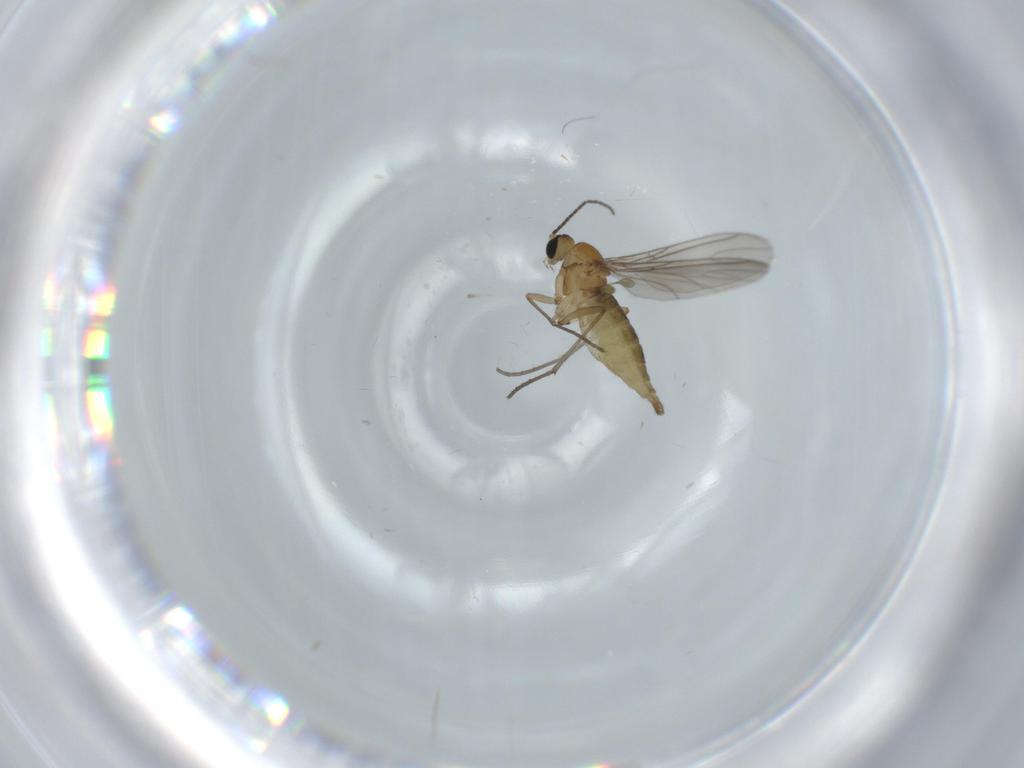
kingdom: Animalia
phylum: Arthropoda
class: Insecta
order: Diptera
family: Sciaridae
